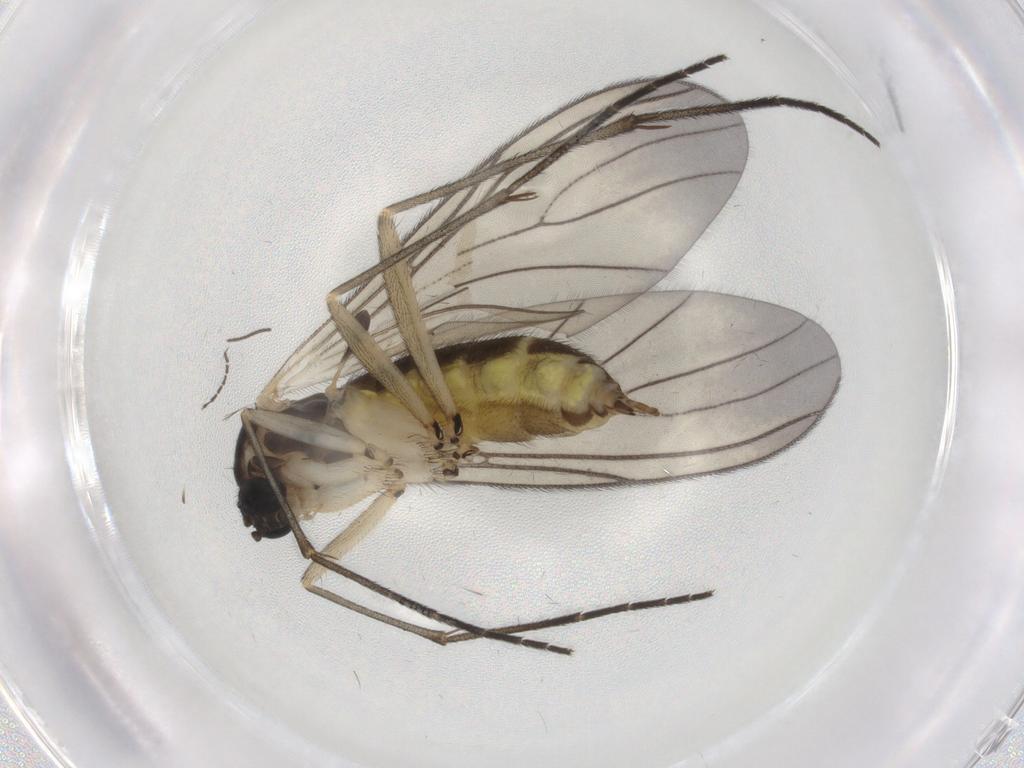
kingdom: Animalia
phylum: Arthropoda
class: Insecta
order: Diptera
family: Sciaridae
